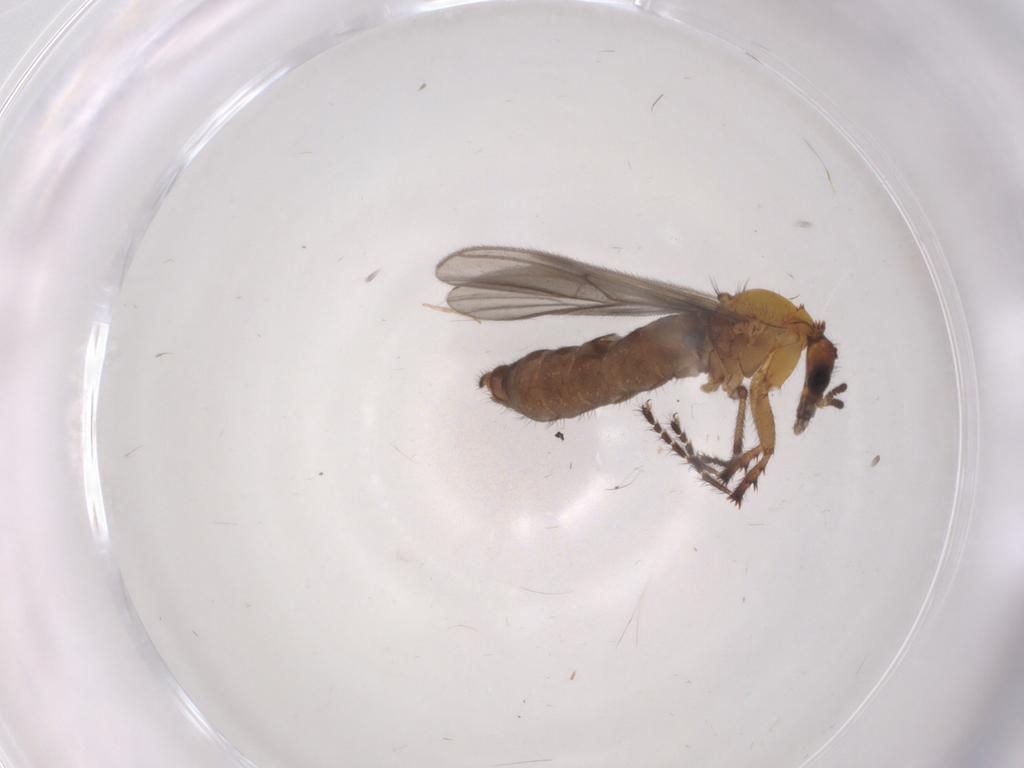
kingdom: Animalia
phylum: Arthropoda
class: Insecta
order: Diptera
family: Bibionidae
